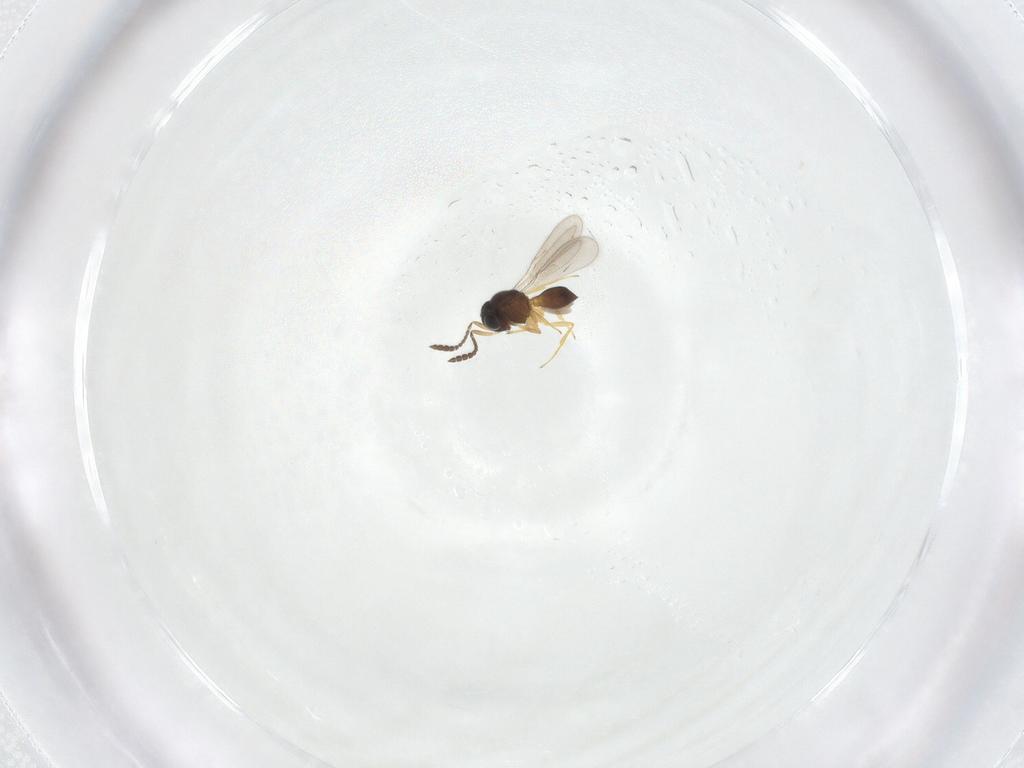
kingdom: Animalia
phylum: Arthropoda
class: Insecta
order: Hymenoptera
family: Scelionidae
